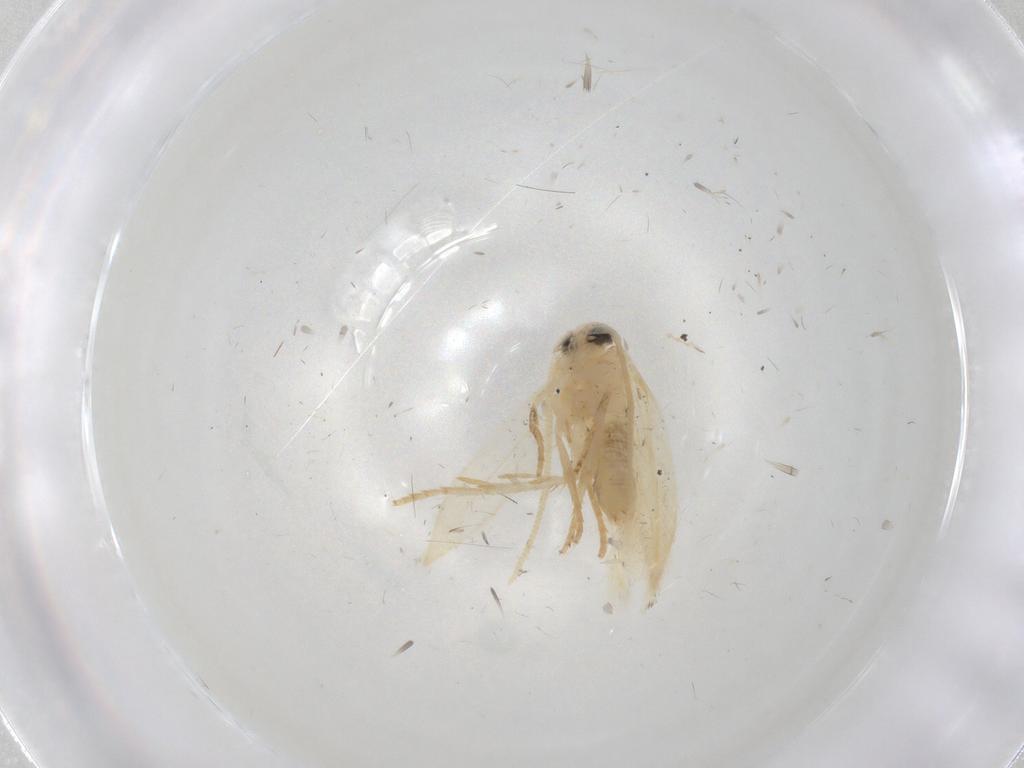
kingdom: Animalia
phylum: Arthropoda
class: Insecta
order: Lepidoptera
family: Opostegidae
